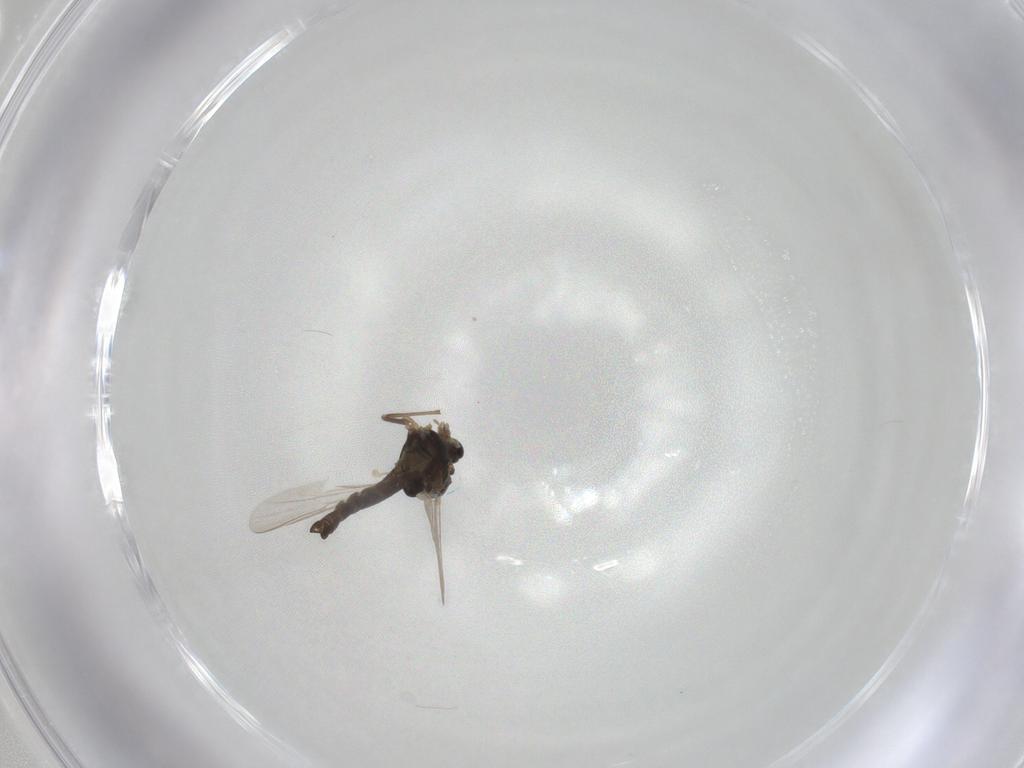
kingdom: Animalia
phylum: Arthropoda
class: Insecta
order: Diptera
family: Chironomidae
